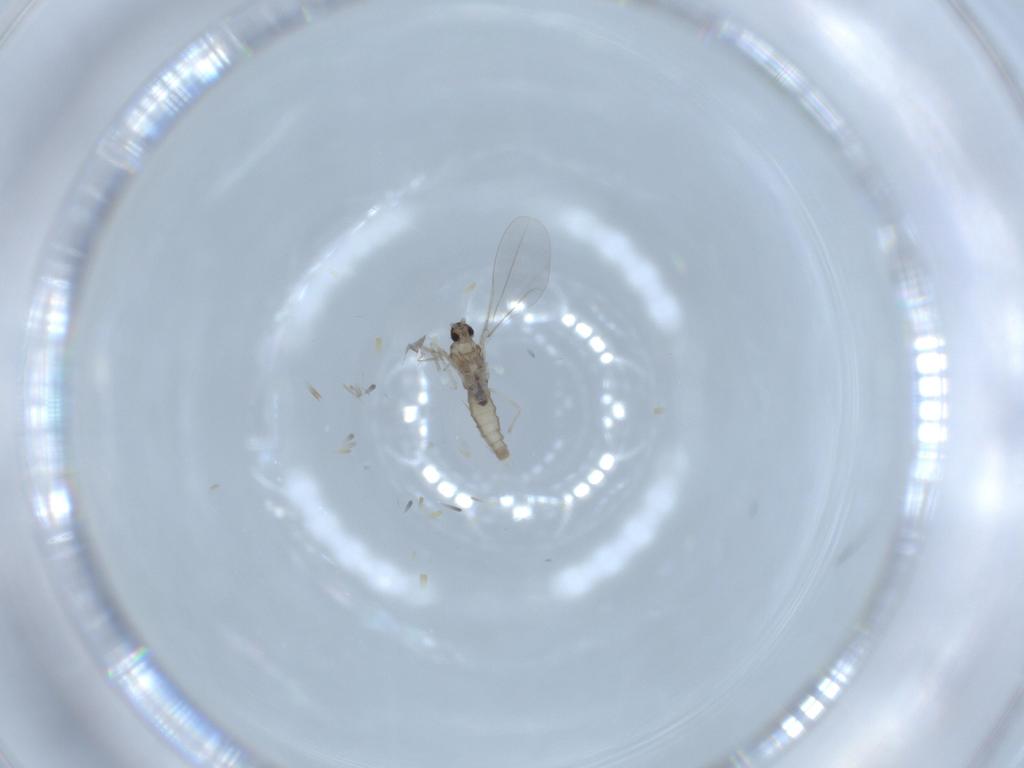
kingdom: Animalia
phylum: Arthropoda
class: Insecta
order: Diptera
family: Cecidomyiidae
